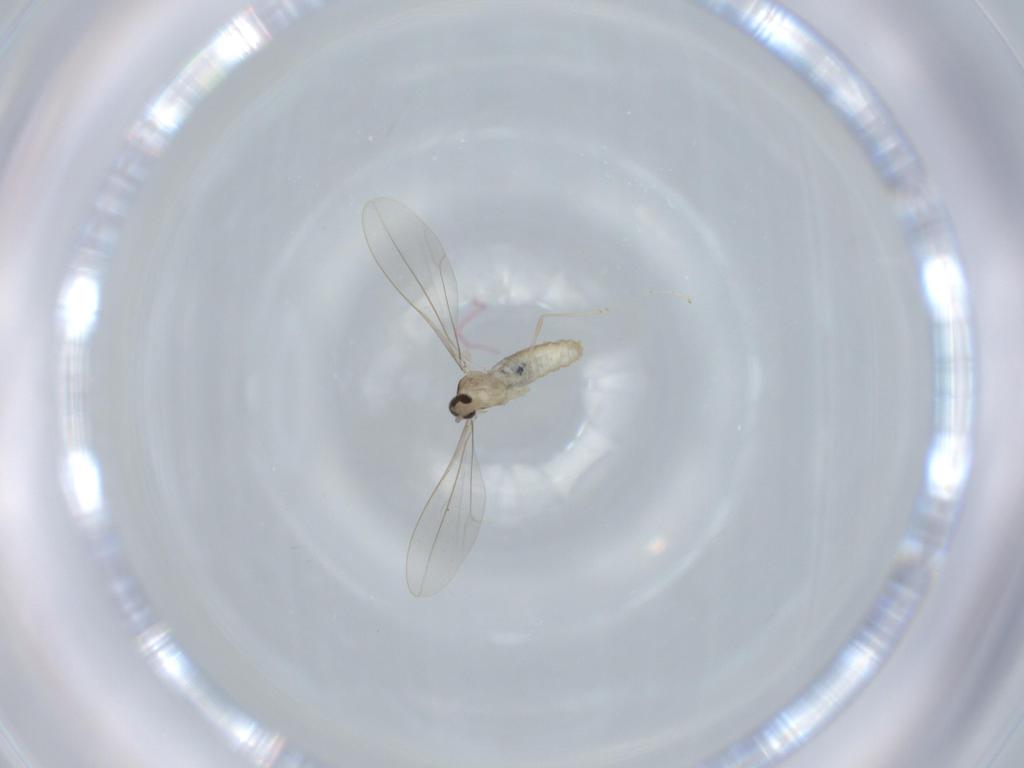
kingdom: Animalia
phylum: Arthropoda
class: Insecta
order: Diptera
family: Cecidomyiidae
